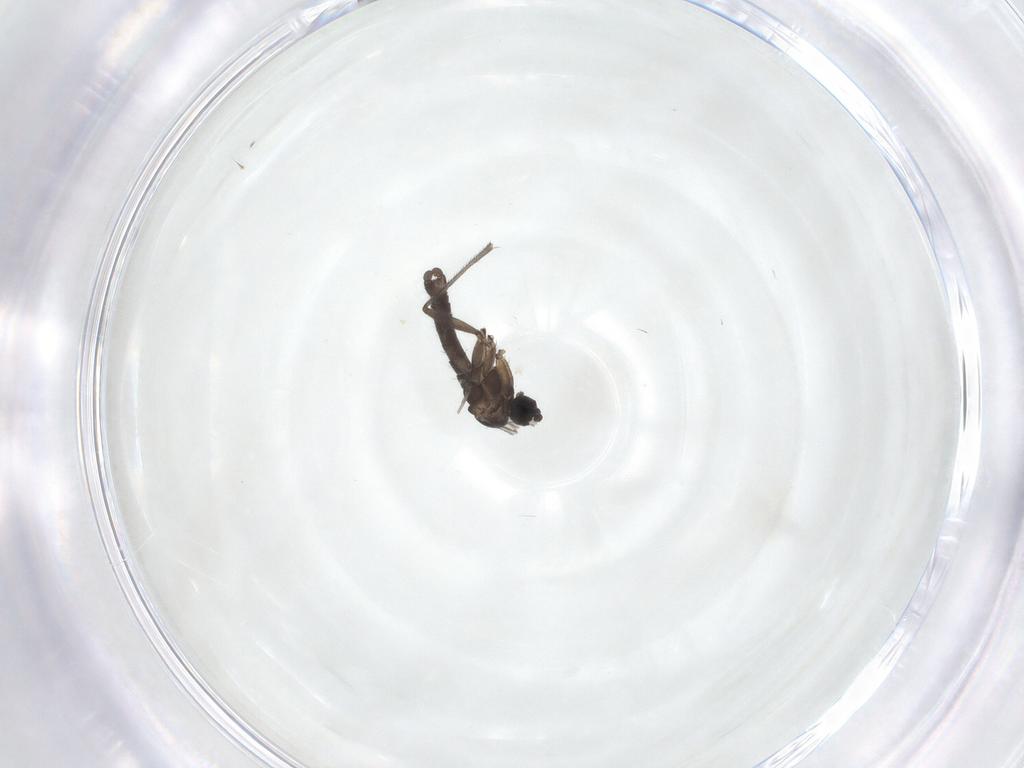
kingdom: Animalia
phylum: Arthropoda
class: Insecta
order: Diptera
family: Sciaridae
